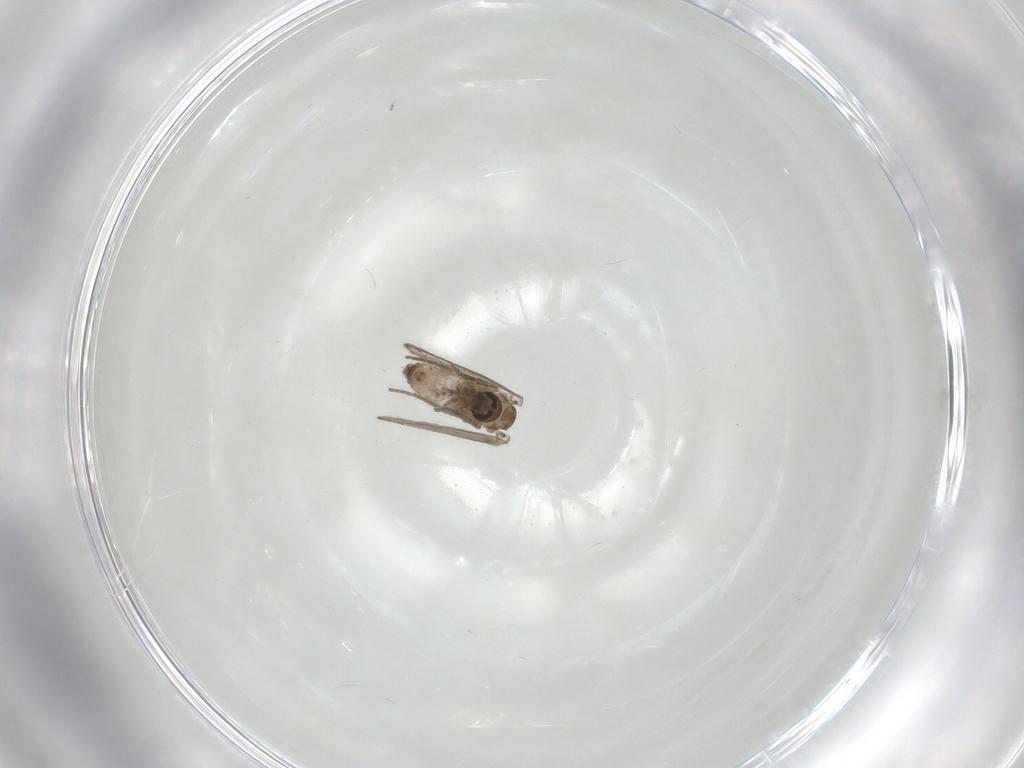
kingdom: Animalia
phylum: Arthropoda
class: Insecta
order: Diptera
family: Psychodidae
